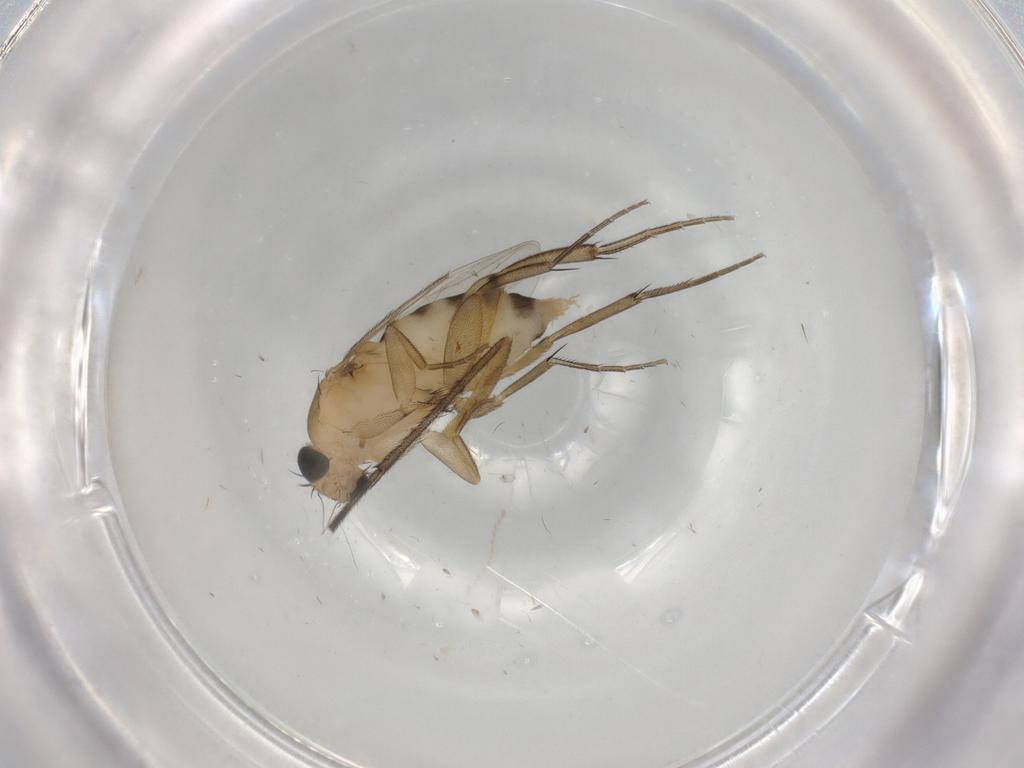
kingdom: Animalia
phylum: Arthropoda
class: Insecta
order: Diptera
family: Sciaridae
